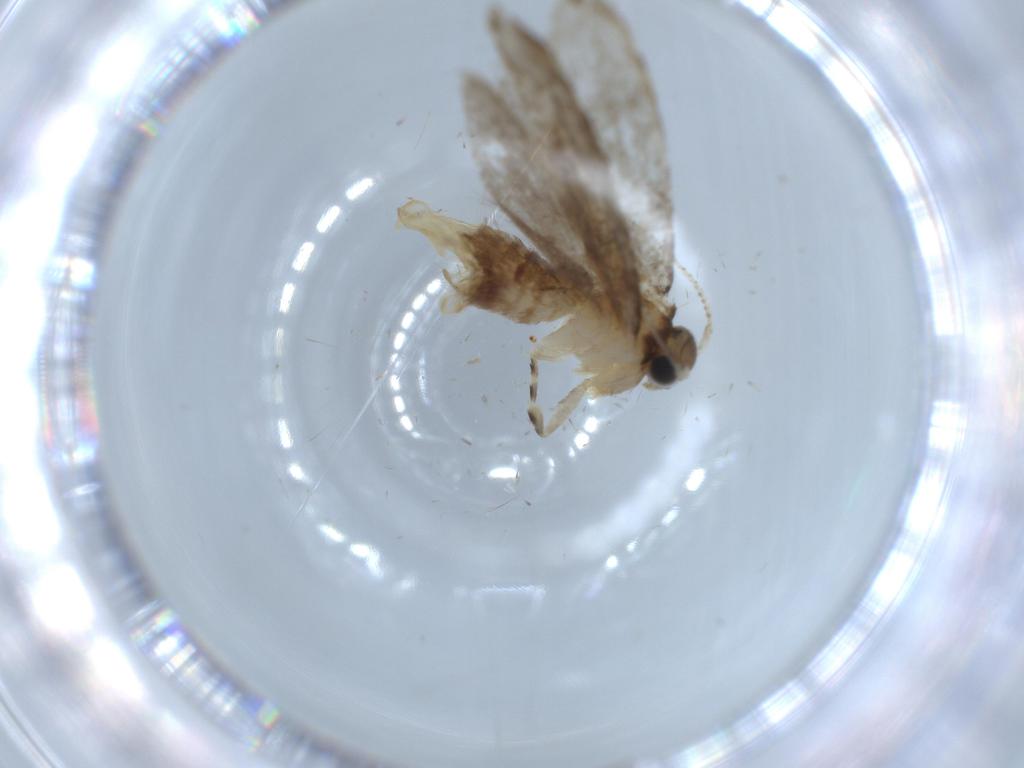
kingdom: Animalia
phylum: Arthropoda
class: Insecta
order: Lepidoptera
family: Tineidae
